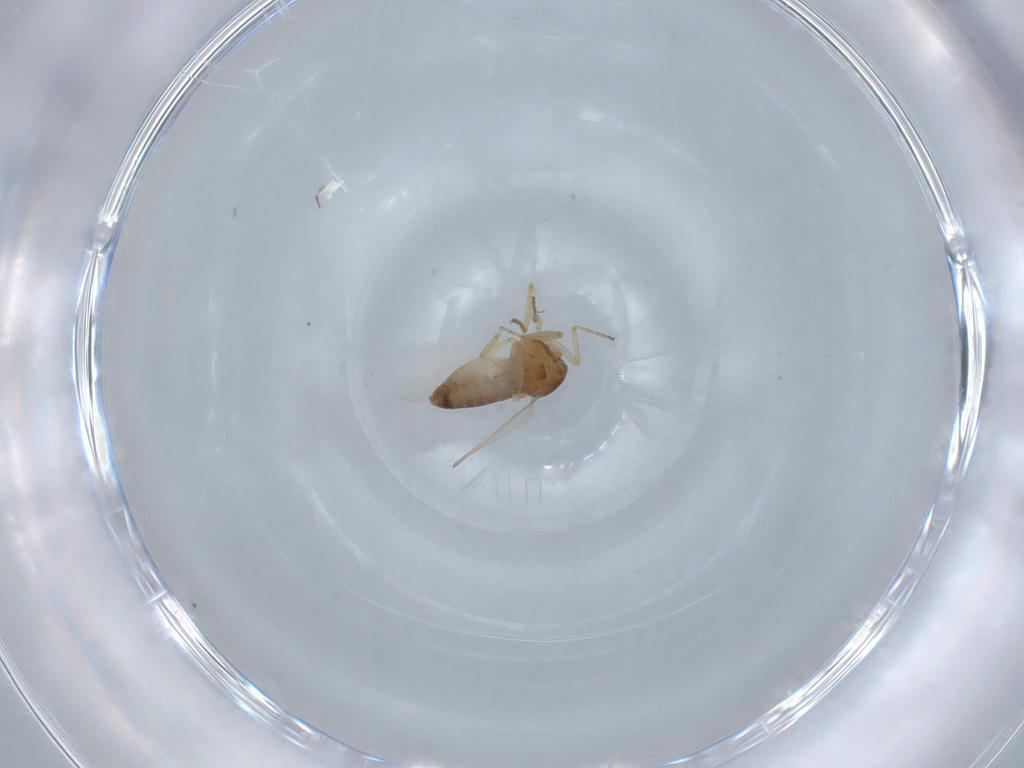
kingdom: Animalia
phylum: Arthropoda
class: Insecta
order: Diptera
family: Ceratopogonidae
